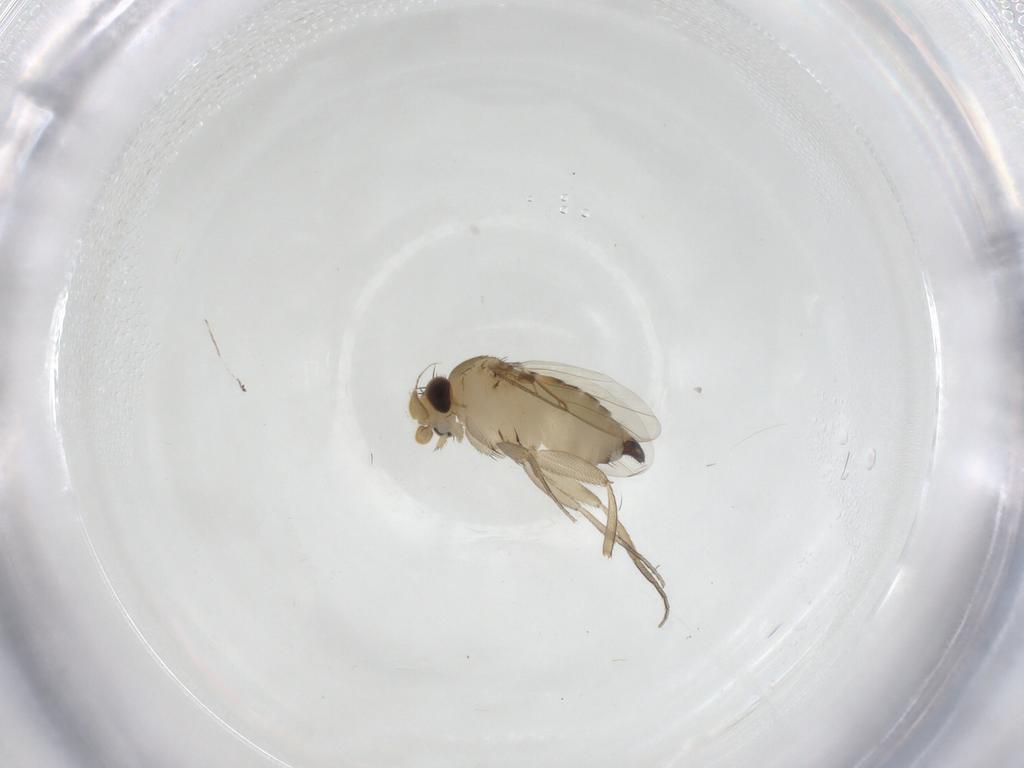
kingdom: Animalia
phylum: Arthropoda
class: Insecta
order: Diptera
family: Phoridae
